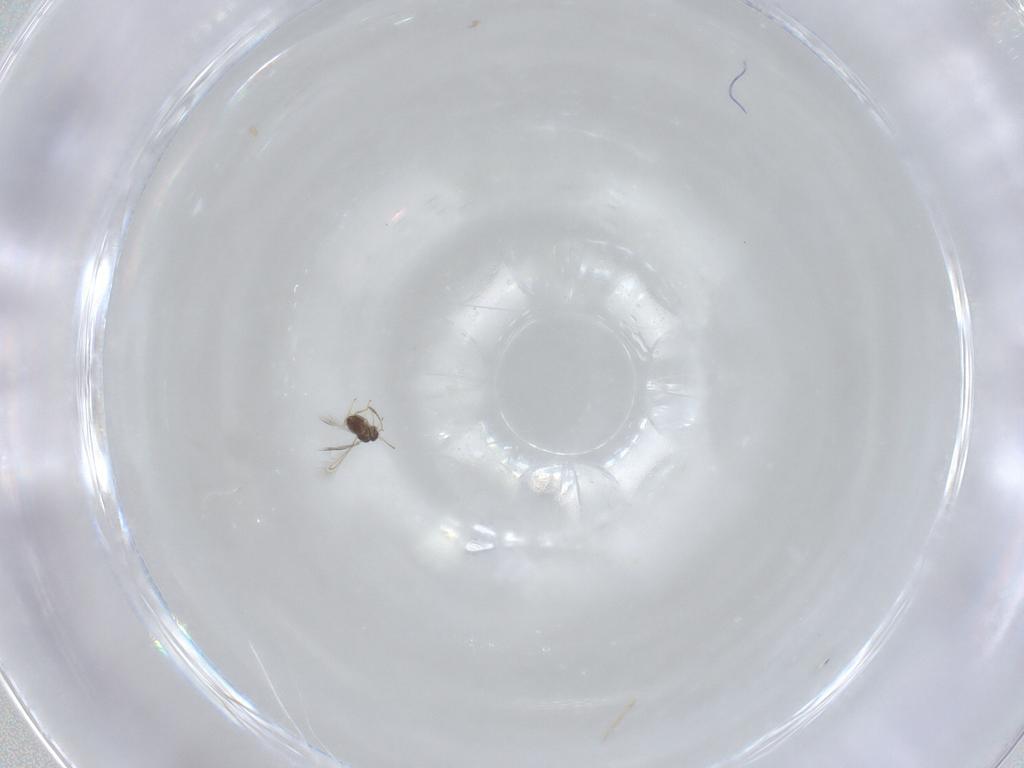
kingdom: Animalia
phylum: Arthropoda
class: Insecta
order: Hymenoptera
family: Mymaridae
